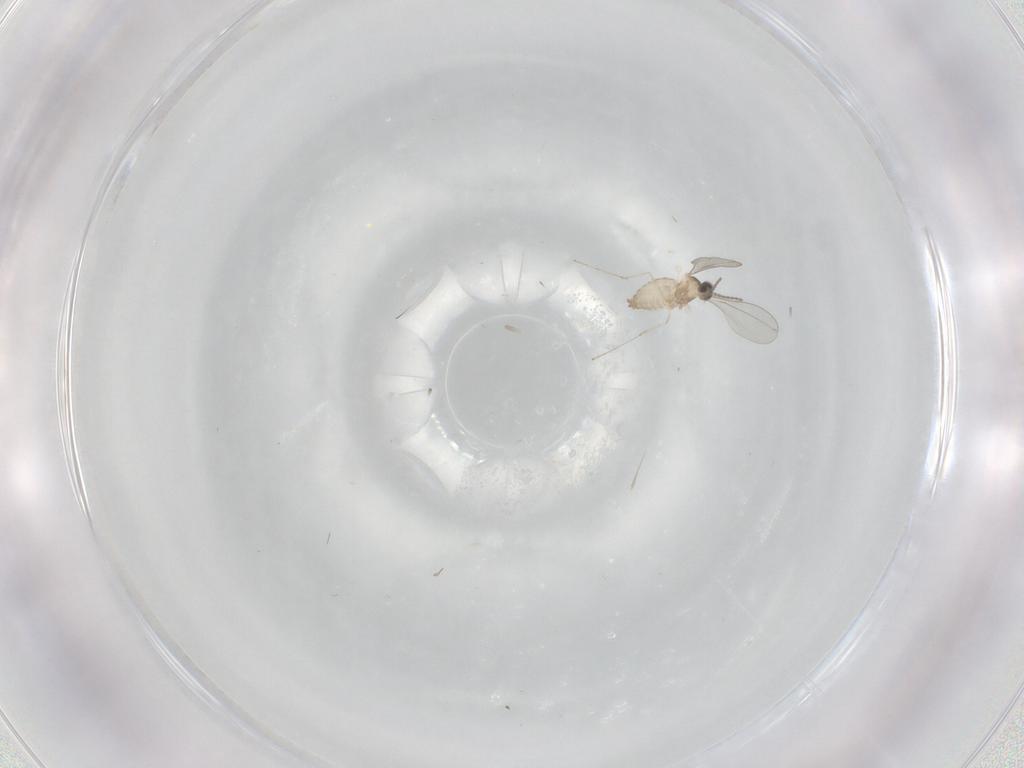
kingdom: Animalia
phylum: Arthropoda
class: Insecta
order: Diptera
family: Cecidomyiidae
